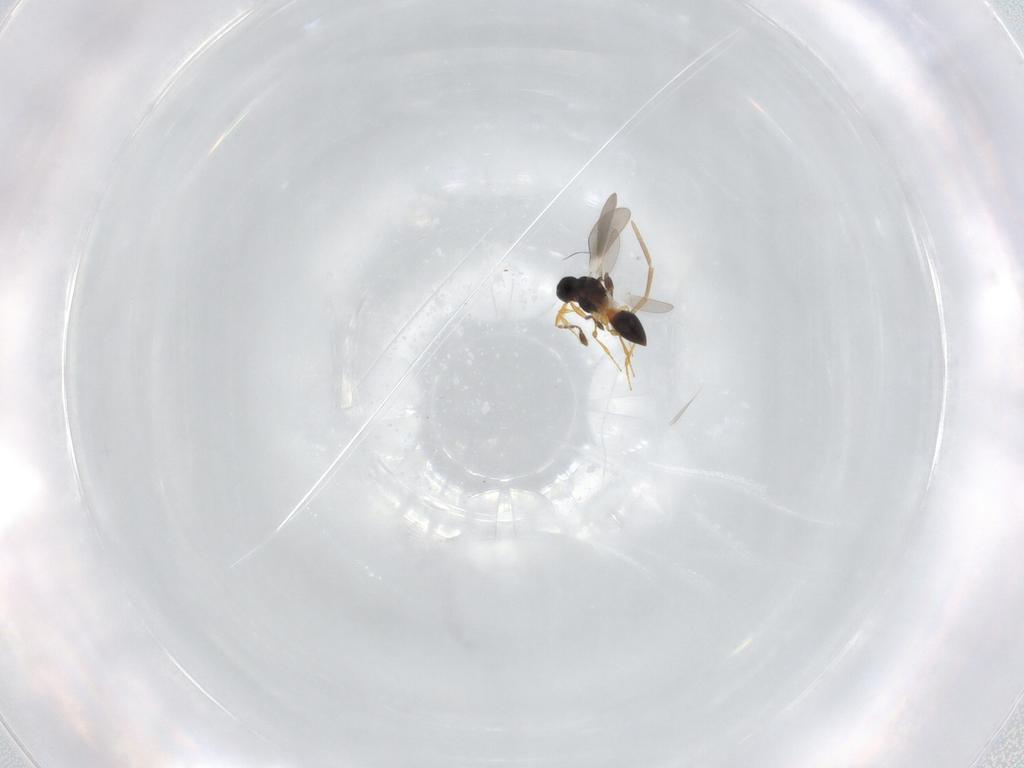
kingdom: Animalia
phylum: Arthropoda
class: Insecta
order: Hymenoptera
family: Pompilidae
